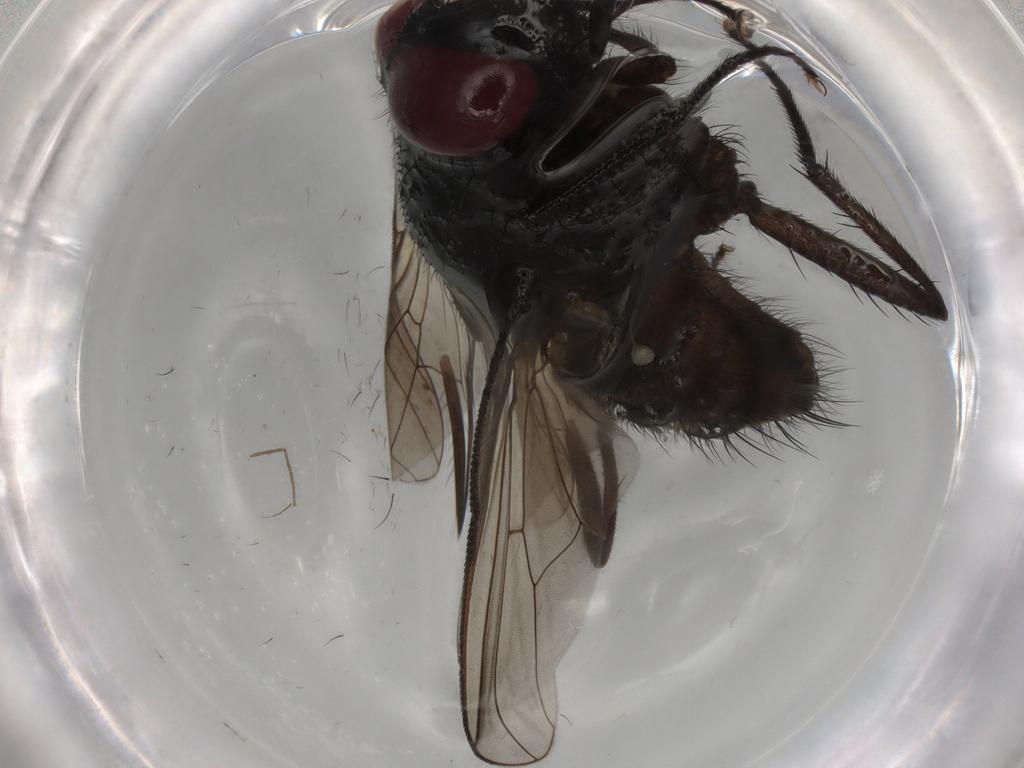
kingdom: Animalia
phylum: Arthropoda
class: Insecta
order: Diptera
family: Muscidae
